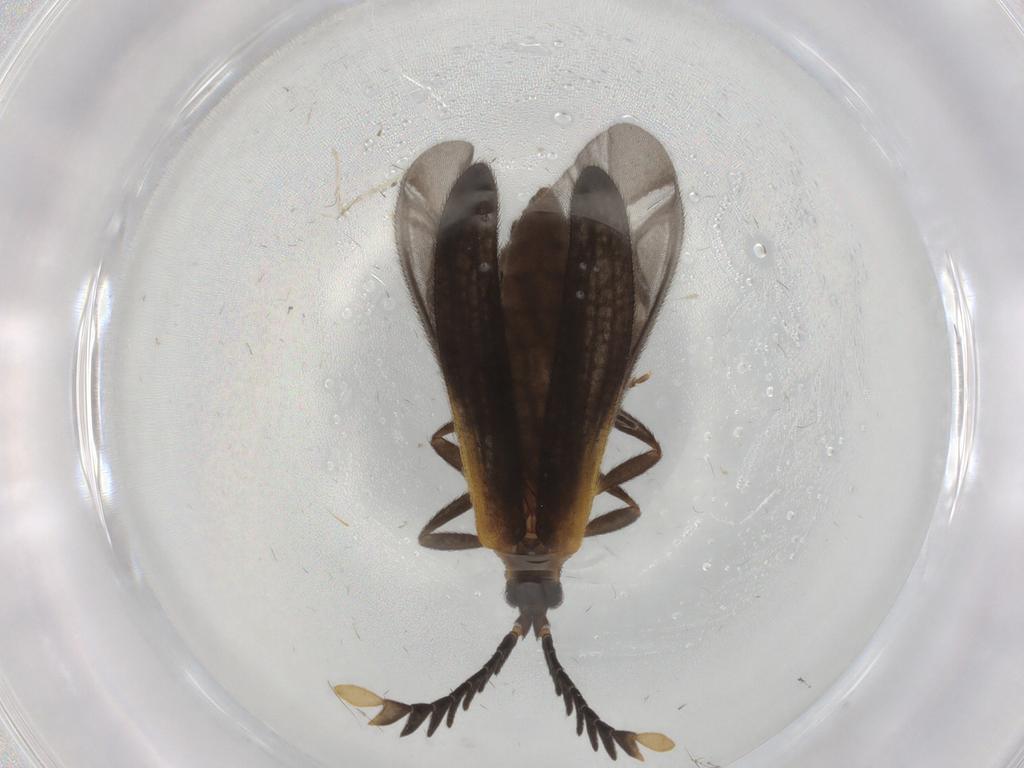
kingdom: Animalia
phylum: Arthropoda
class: Insecta
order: Coleoptera
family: Lycidae
